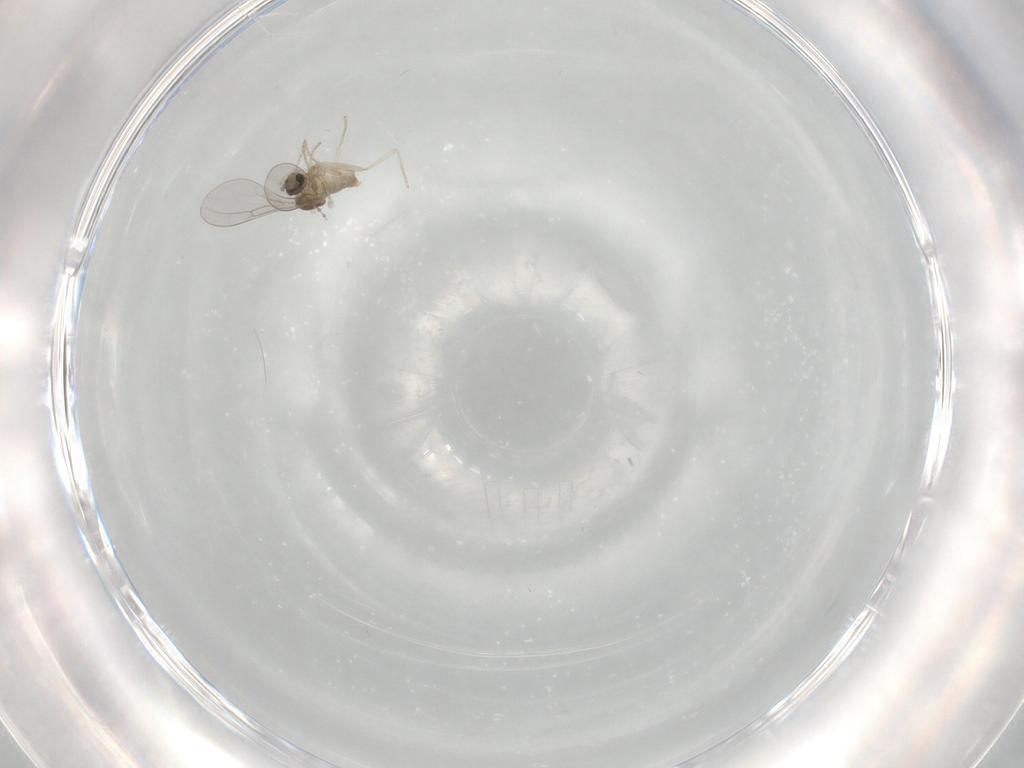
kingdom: Animalia
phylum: Arthropoda
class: Insecta
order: Diptera
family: Cecidomyiidae
